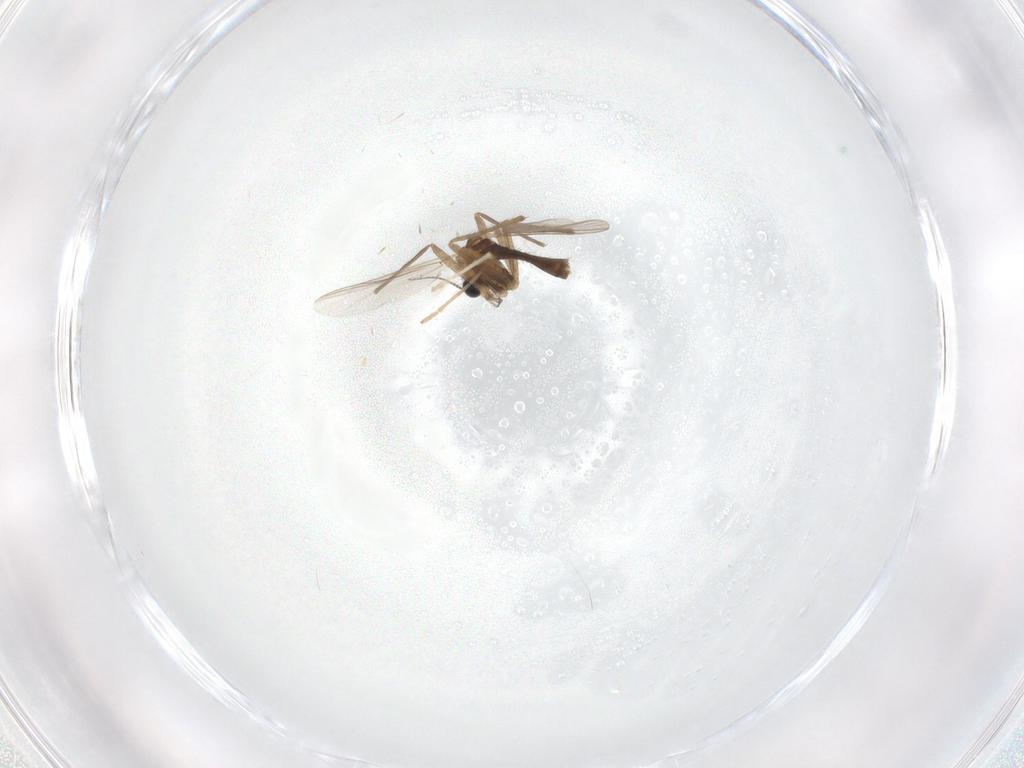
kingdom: Animalia
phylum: Arthropoda
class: Insecta
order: Diptera
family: Chironomidae
